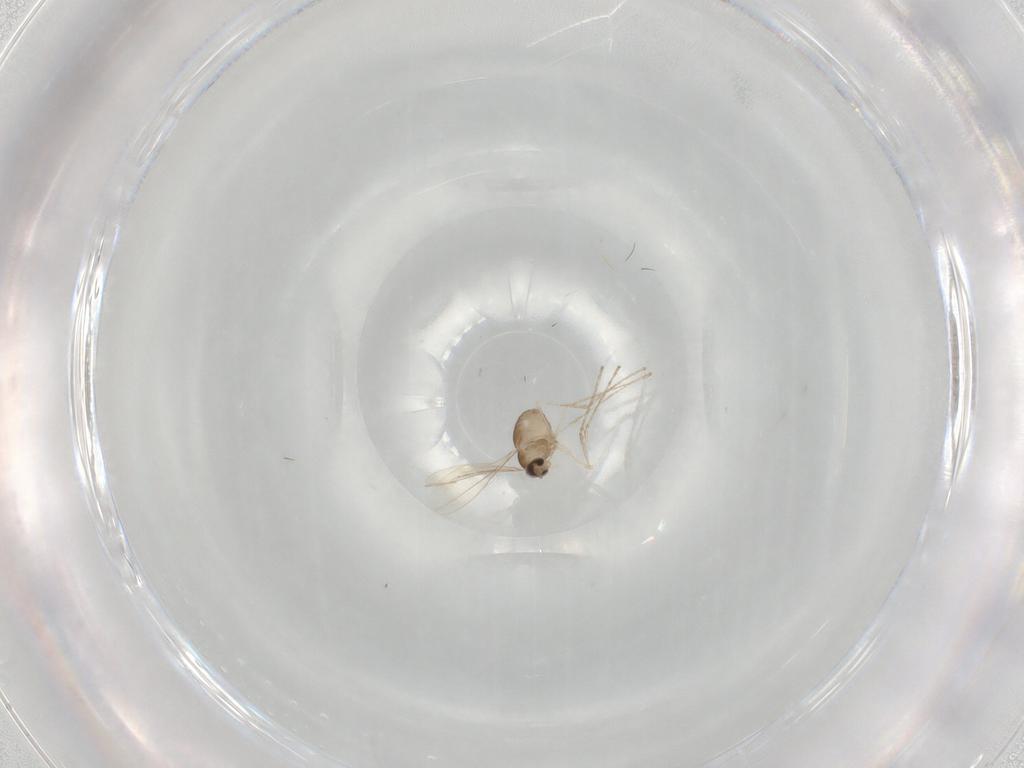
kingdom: Animalia
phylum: Arthropoda
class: Insecta
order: Diptera
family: Cecidomyiidae
